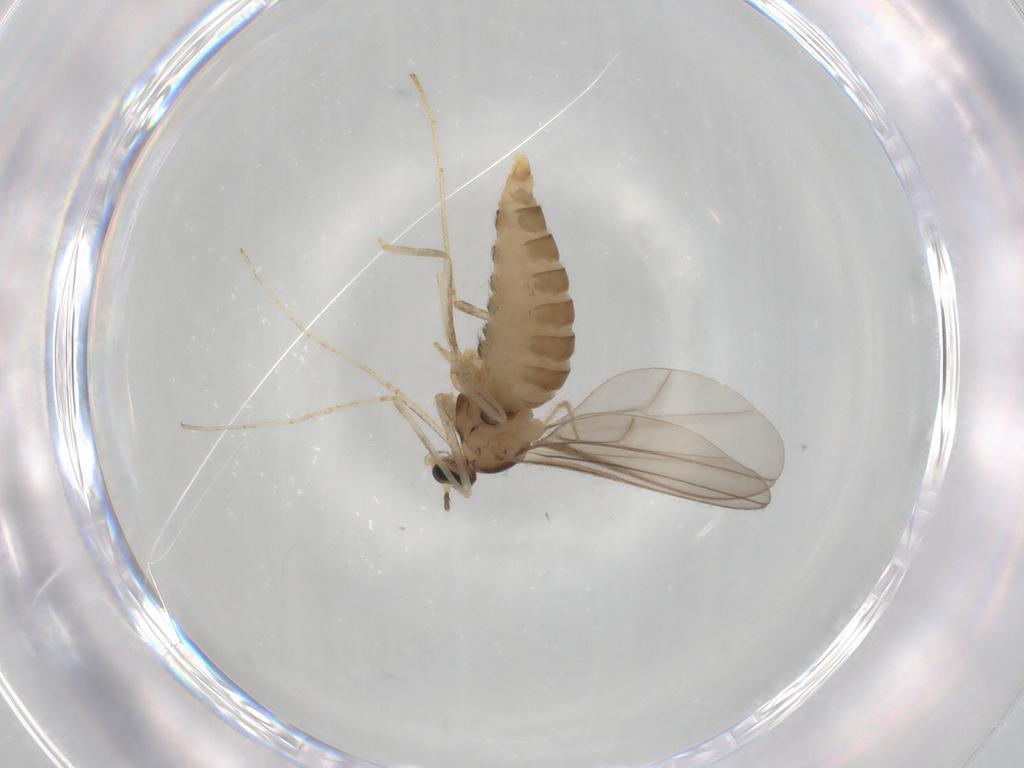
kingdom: Animalia
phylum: Arthropoda
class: Insecta
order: Diptera
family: Cecidomyiidae
